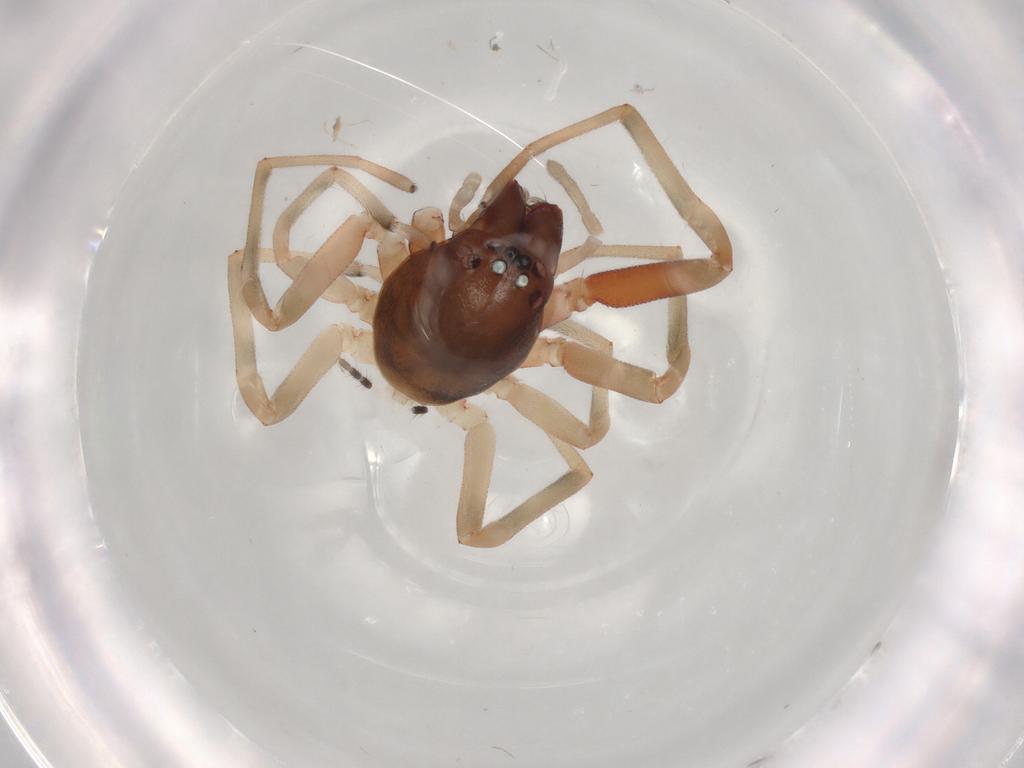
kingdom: Animalia
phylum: Arthropoda
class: Arachnida
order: Araneae
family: Trachelidae
